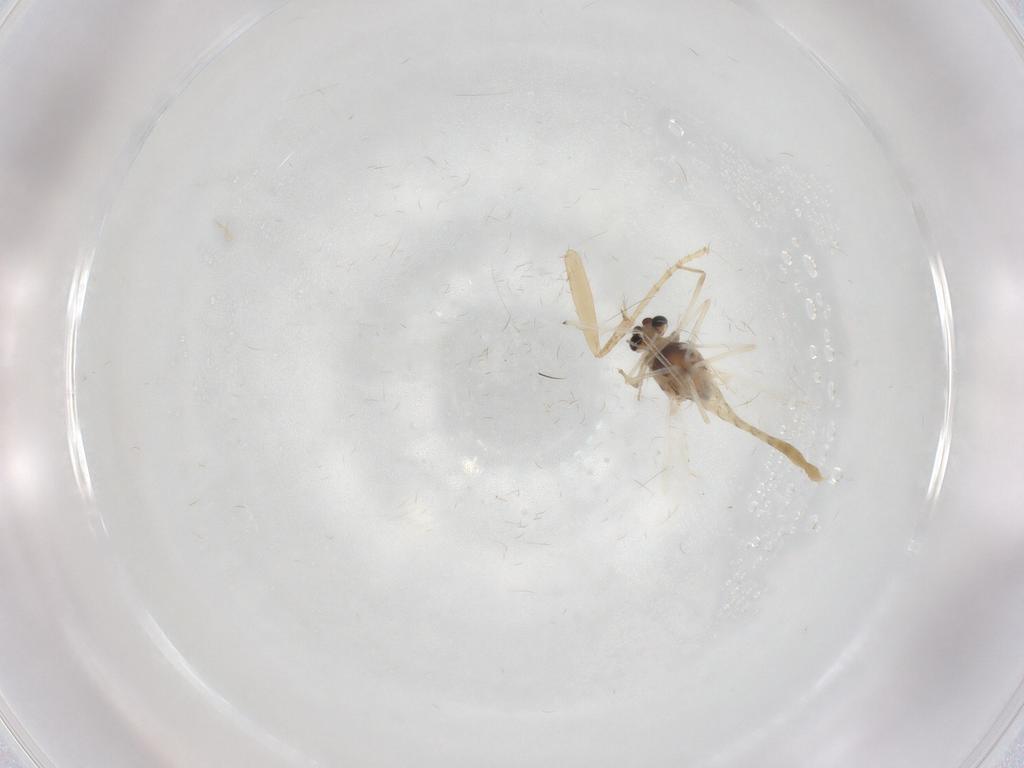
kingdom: Animalia
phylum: Arthropoda
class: Insecta
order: Diptera
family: Chironomidae
